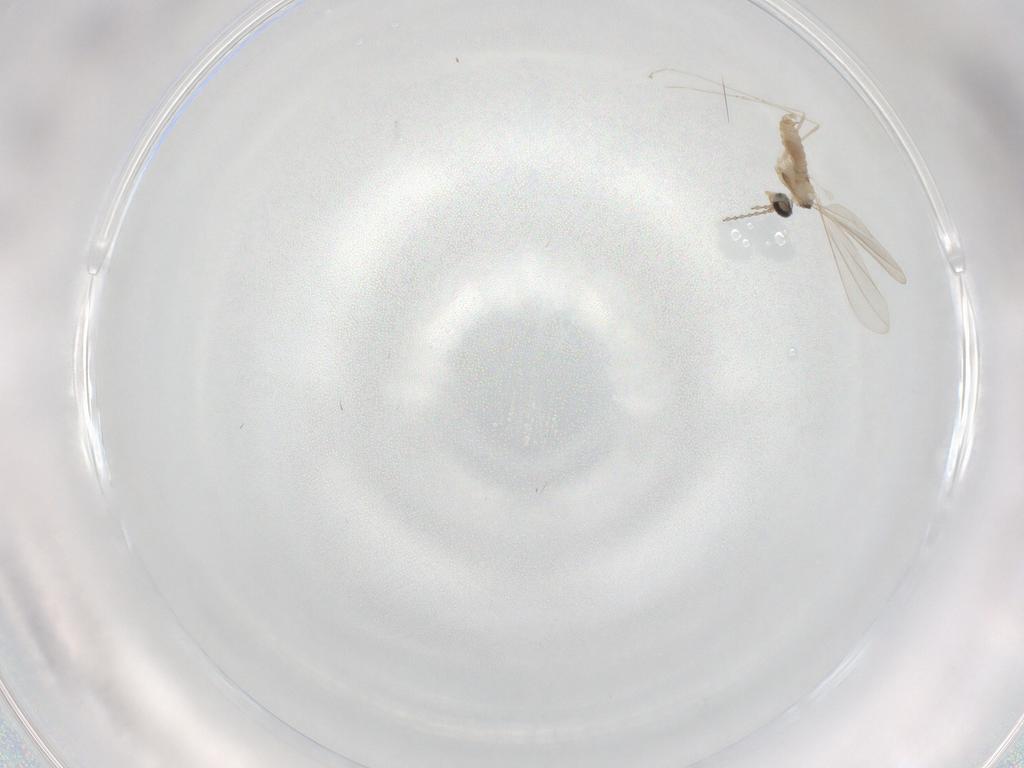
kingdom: Animalia
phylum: Arthropoda
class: Insecta
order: Diptera
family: Cecidomyiidae
